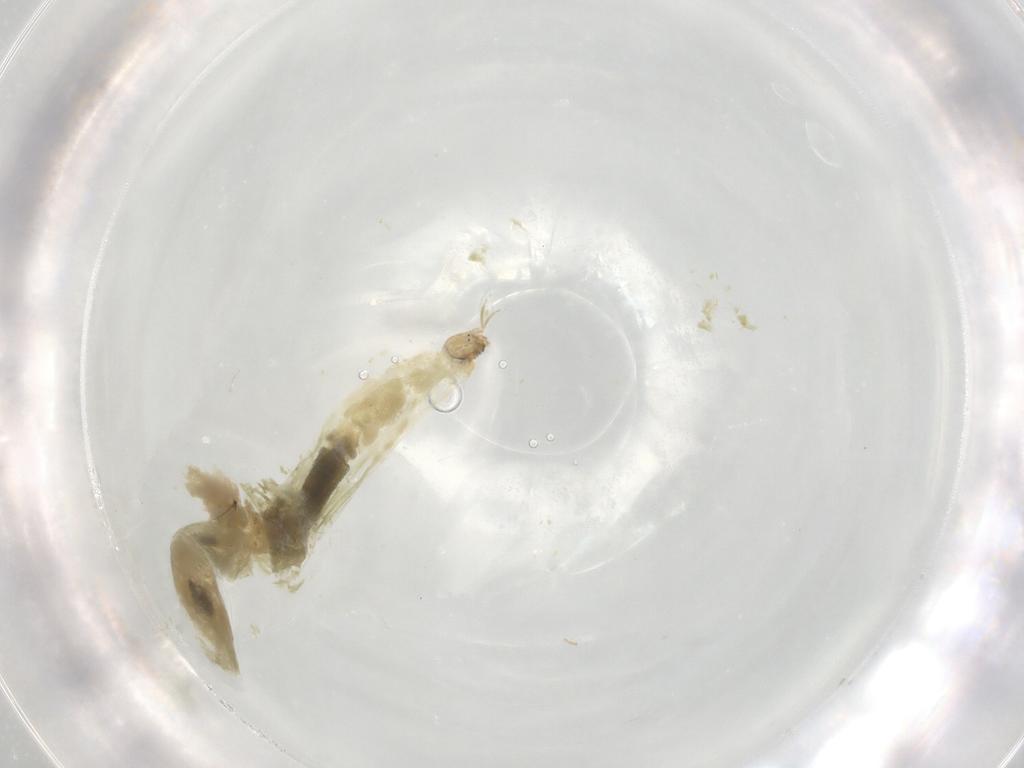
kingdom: Animalia
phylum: Arthropoda
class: Insecta
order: Diptera
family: Chironomidae
